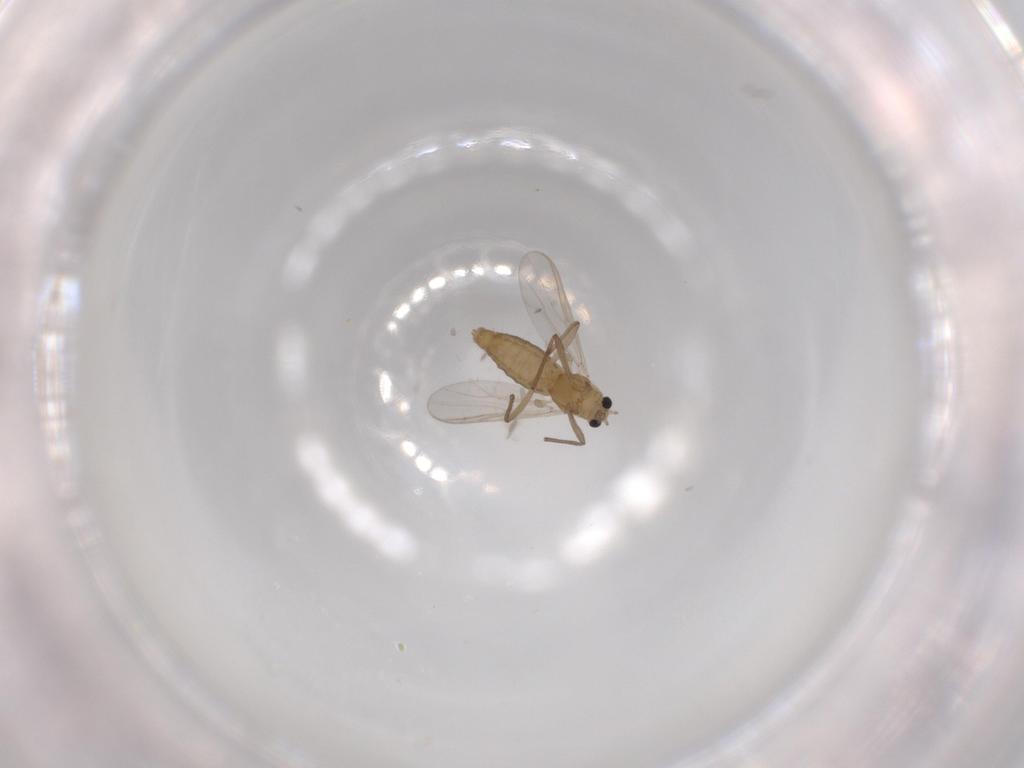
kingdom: Animalia
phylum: Arthropoda
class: Insecta
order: Diptera
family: Chironomidae
